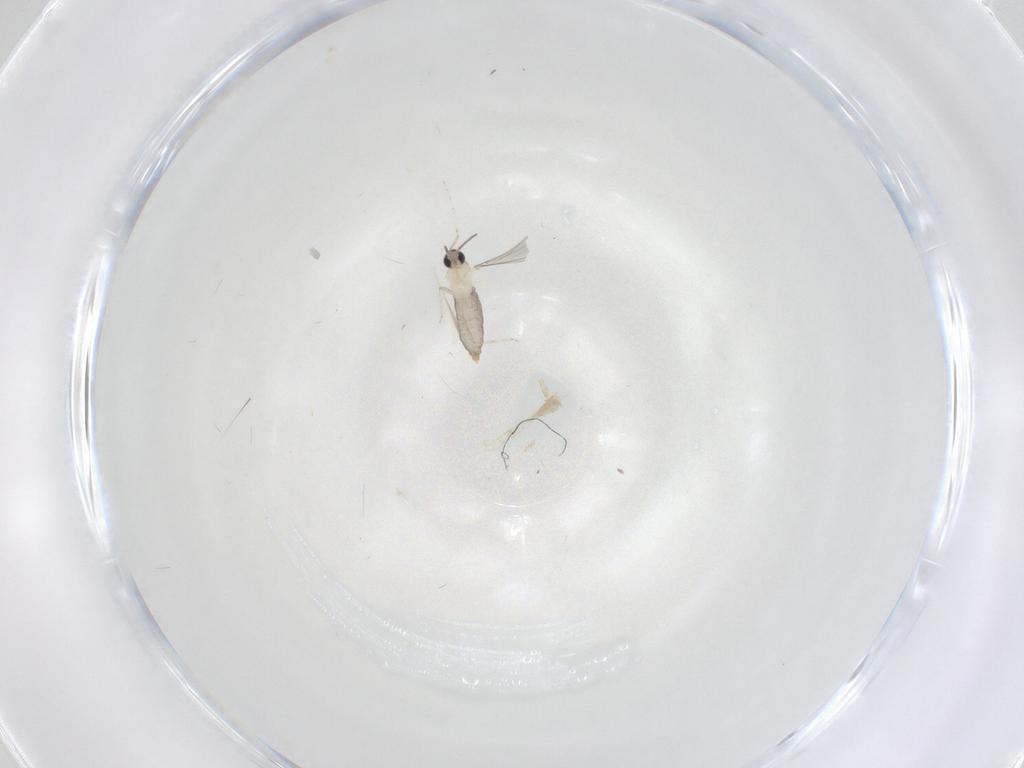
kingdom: Animalia
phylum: Arthropoda
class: Insecta
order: Diptera
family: Cecidomyiidae
